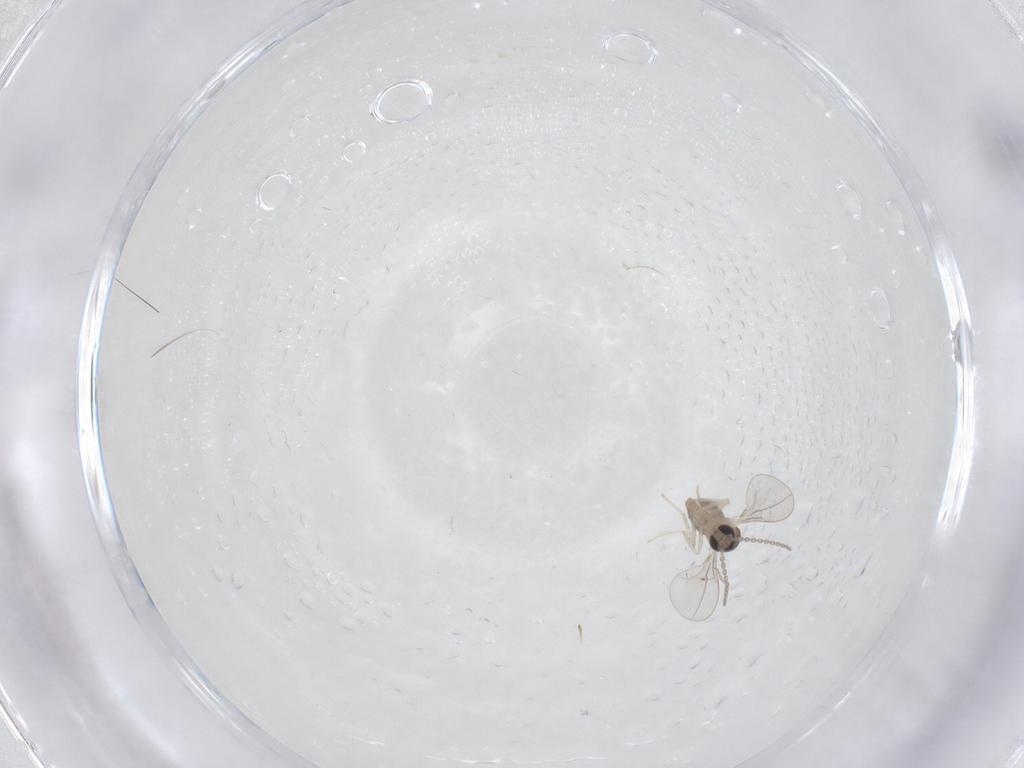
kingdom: Animalia
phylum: Arthropoda
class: Insecta
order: Diptera
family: Cecidomyiidae
